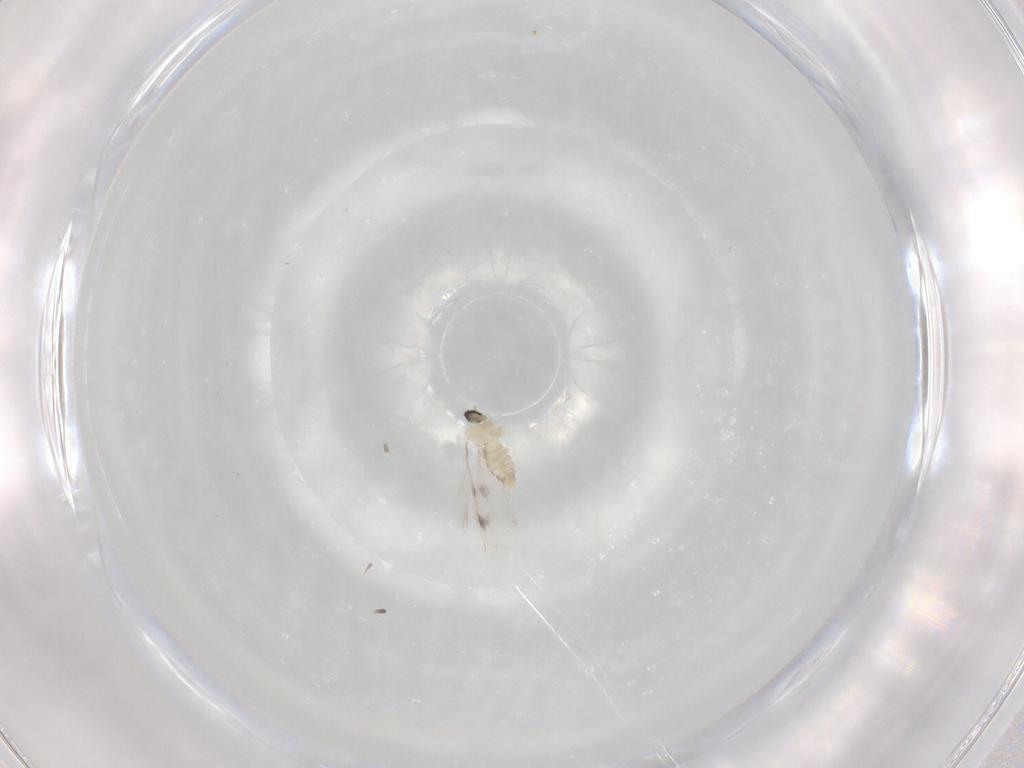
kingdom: Animalia
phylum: Arthropoda
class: Insecta
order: Diptera
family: Cecidomyiidae
